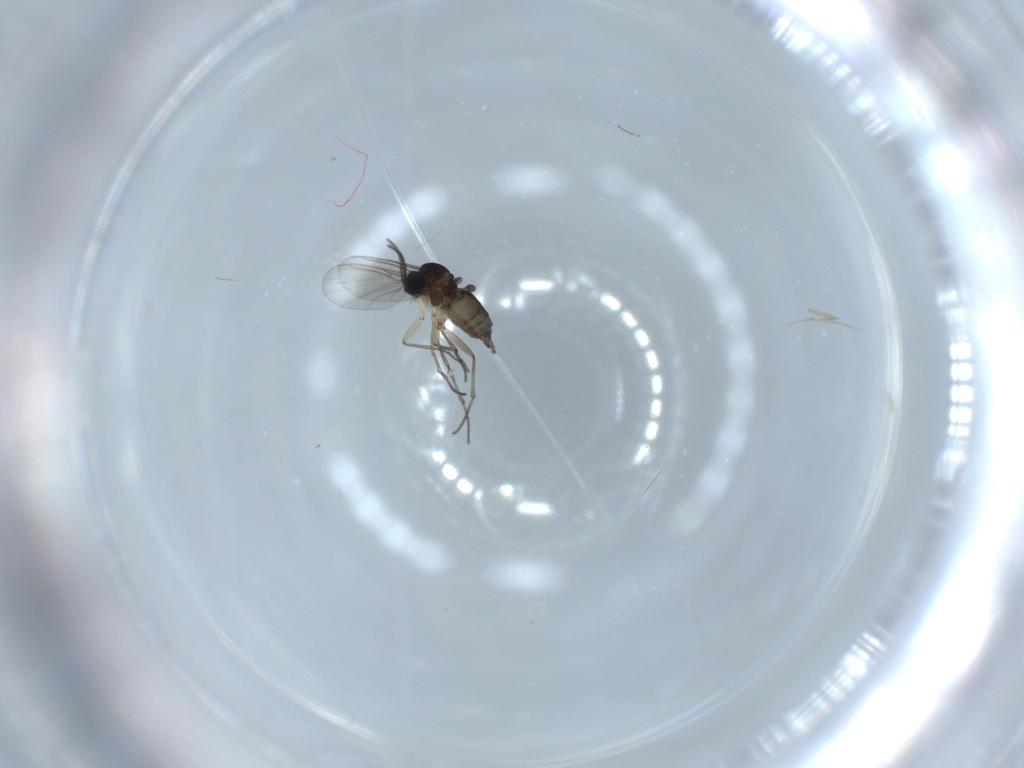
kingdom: Animalia
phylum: Arthropoda
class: Insecta
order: Diptera
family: Sciaridae
